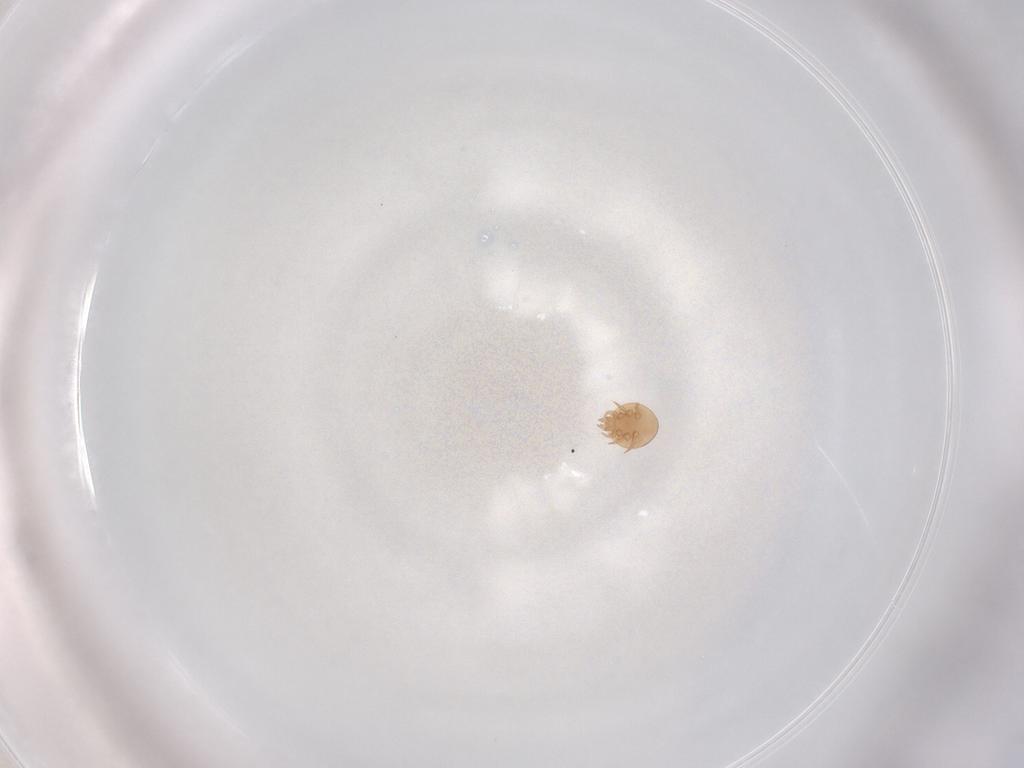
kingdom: Animalia
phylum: Arthropoda
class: Arachnida
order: Mesostigmata
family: Trematuridae
